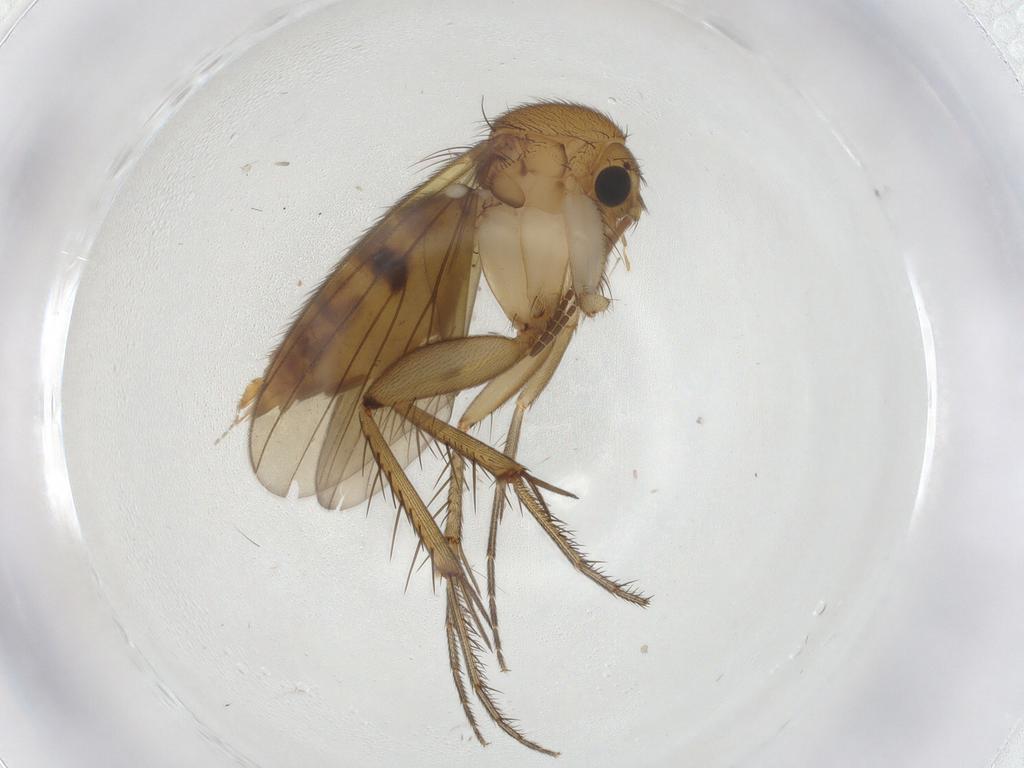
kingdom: Animalia
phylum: Arthropoda
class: Insecta
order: Diptera
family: Mycetophilidae
